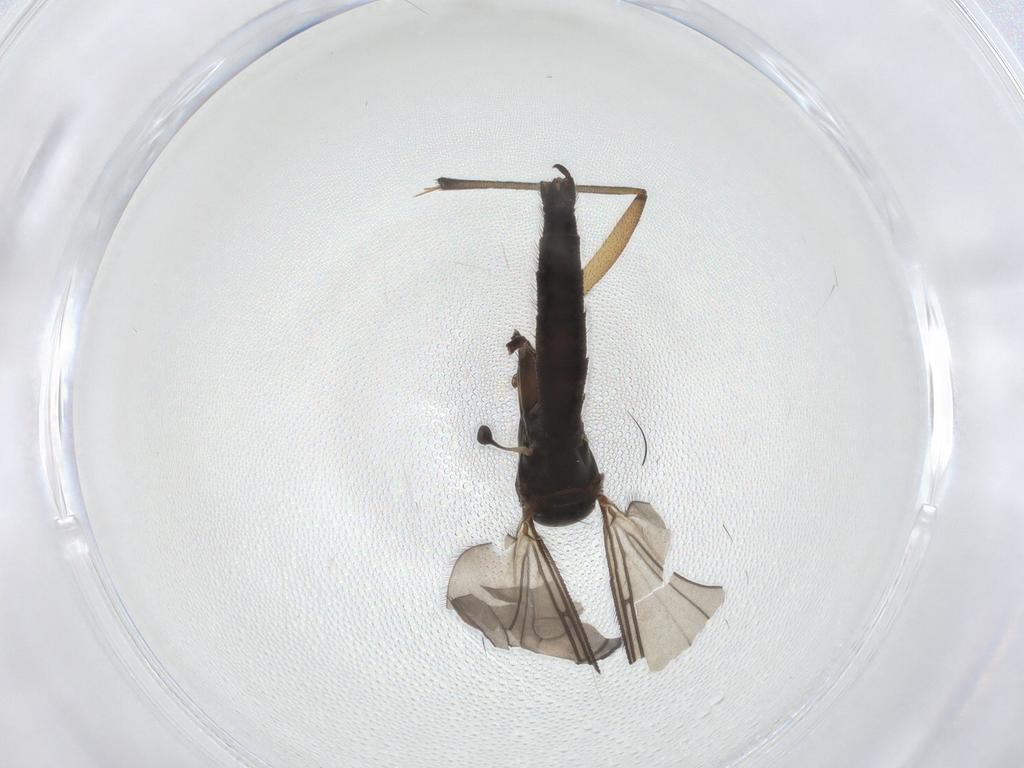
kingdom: Animalia
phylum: Arthropoda
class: Insecta
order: Diptera
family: Sciaridae
